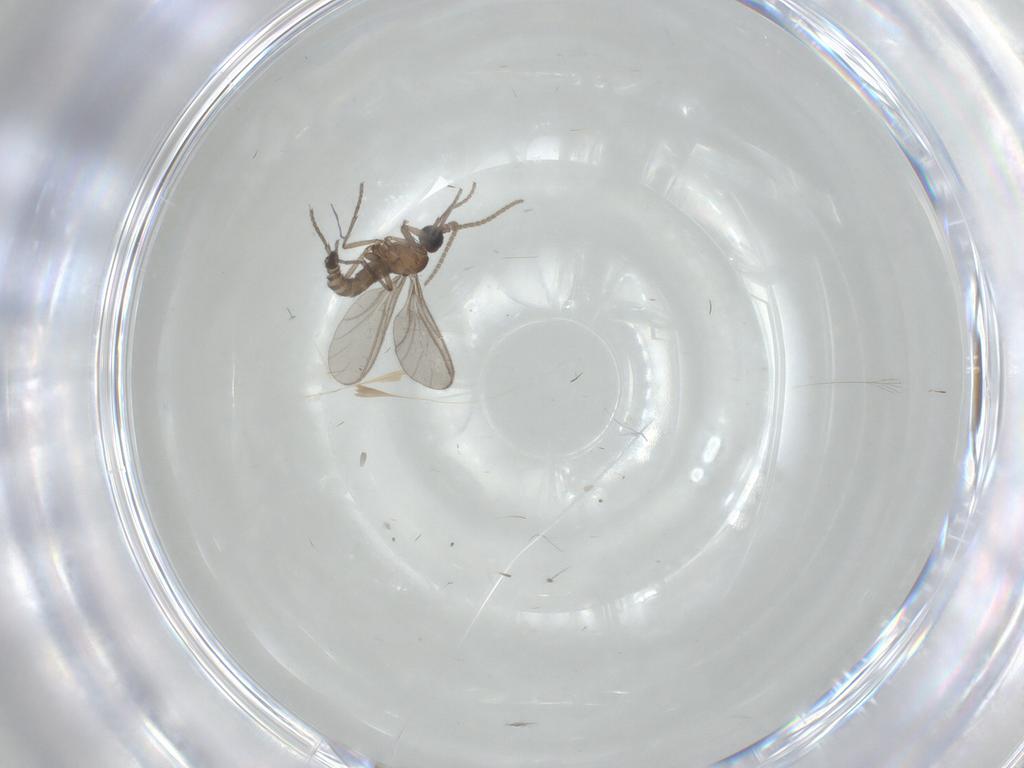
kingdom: Animalia
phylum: Arthropoda
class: Insecta
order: Diptera
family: Sciaridae
